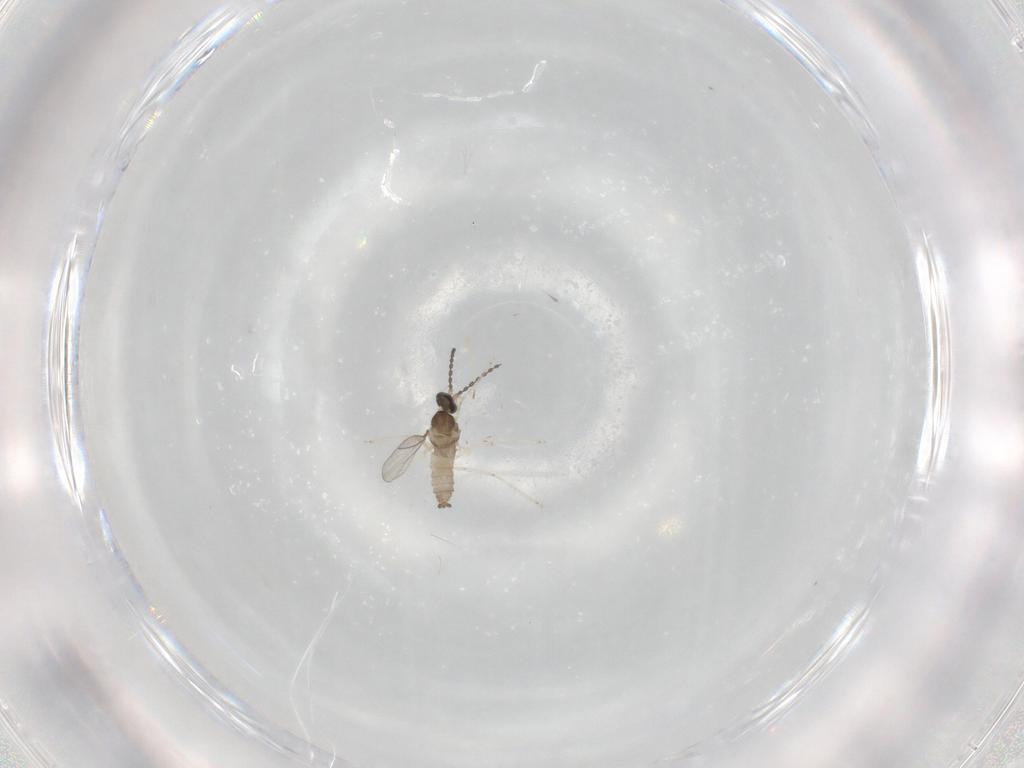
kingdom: Animalia
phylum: Arthropoda
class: Insecta
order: Diptera
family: Cecidomyiidae
